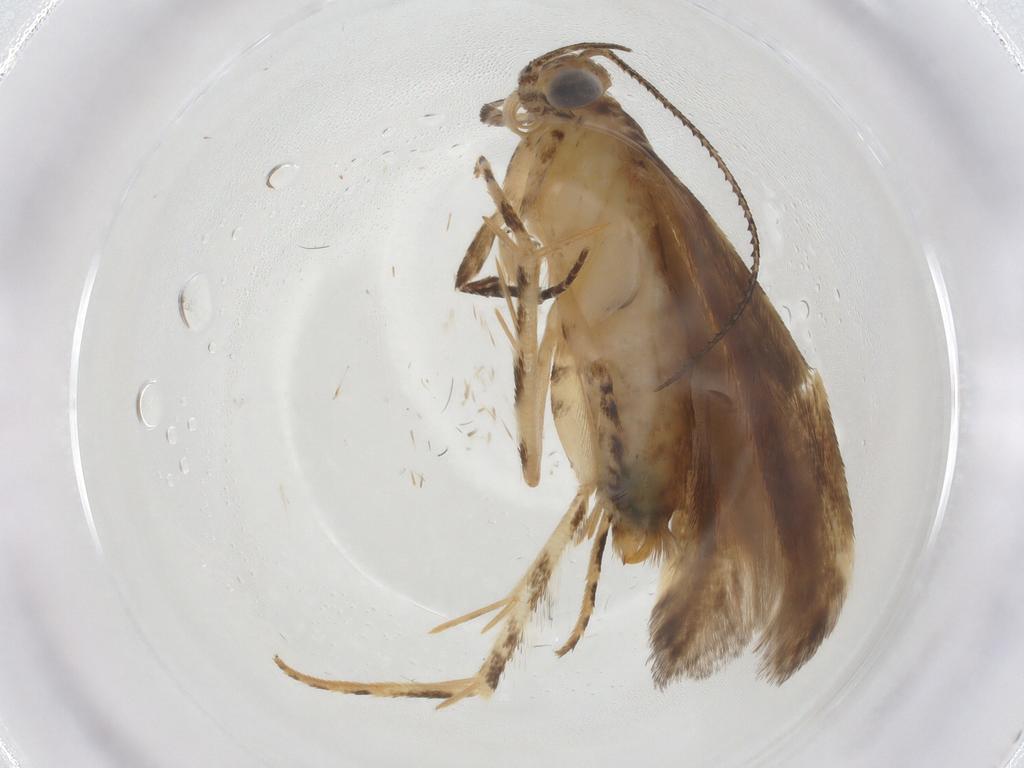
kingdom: Animalia
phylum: Arthropoda
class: Insecta
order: Lepidoptera
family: Gelechiidae
